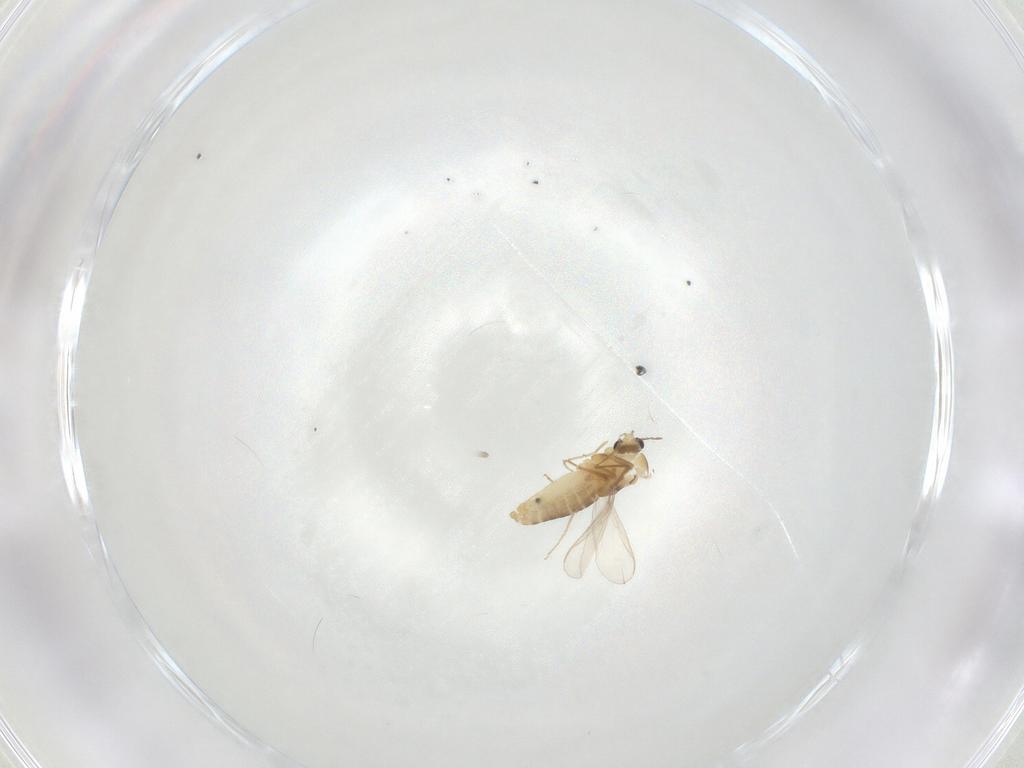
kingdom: Animalia
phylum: Arthropoda
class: Insecta
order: Diptera
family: Chironomidae
